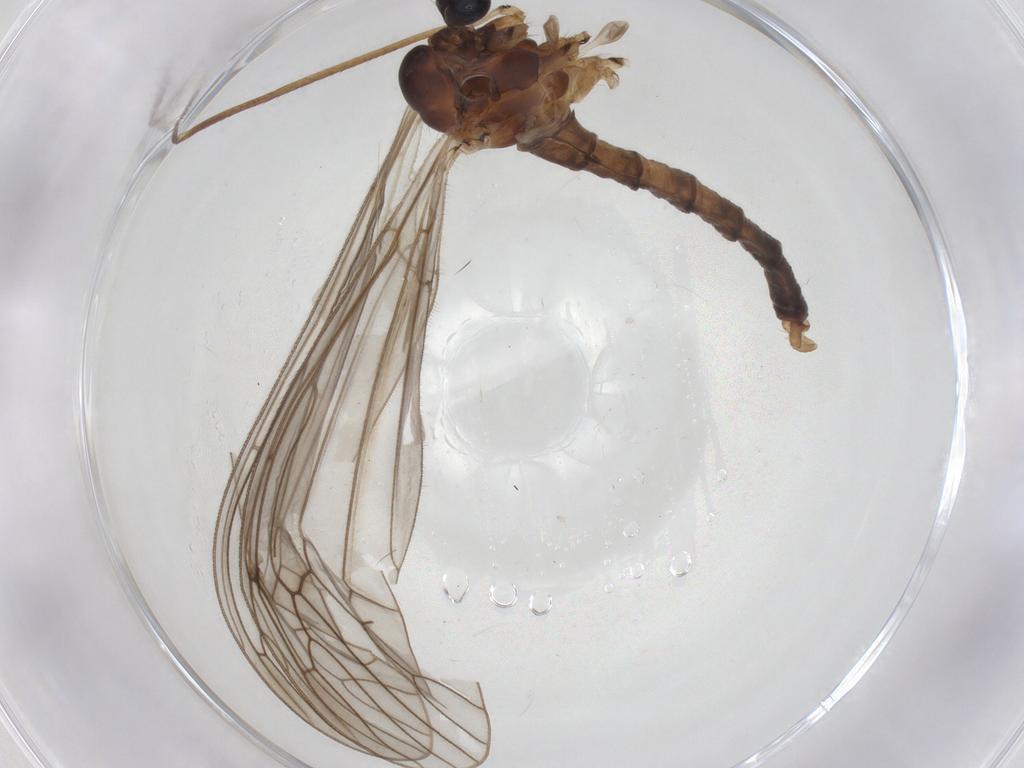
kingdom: Animalia
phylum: Arthropoda
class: Insecta
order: Diptera
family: Trichoceridae
